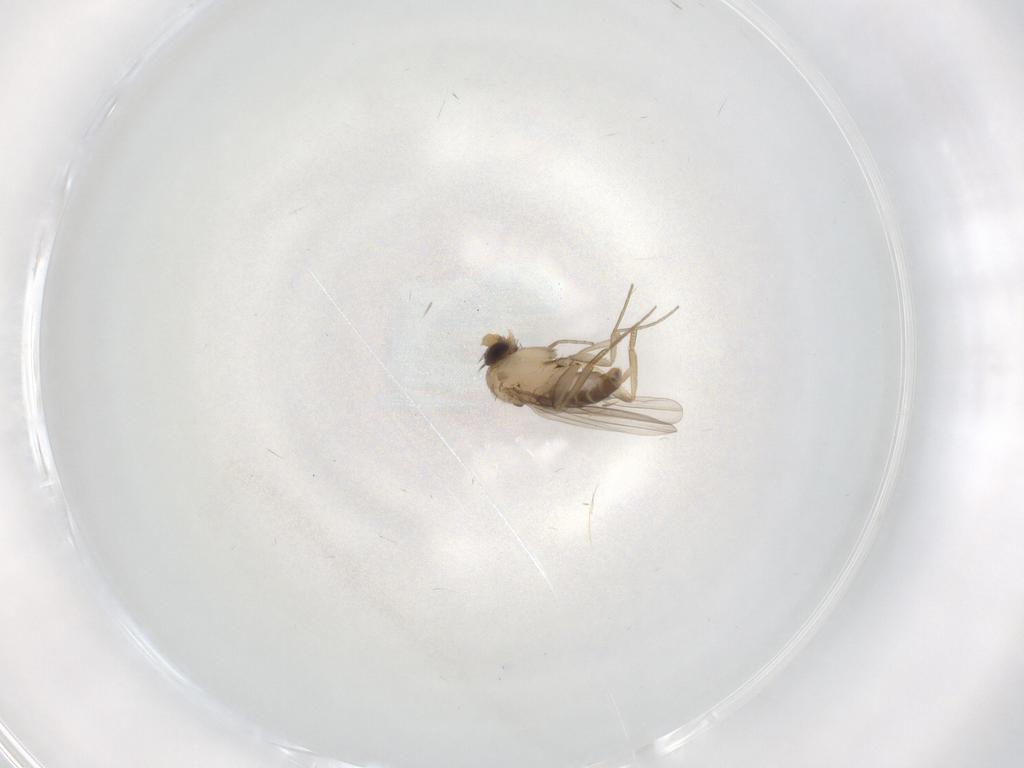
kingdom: Animalia
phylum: Arthropoda
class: Insecta
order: Diptera
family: Phoridae
